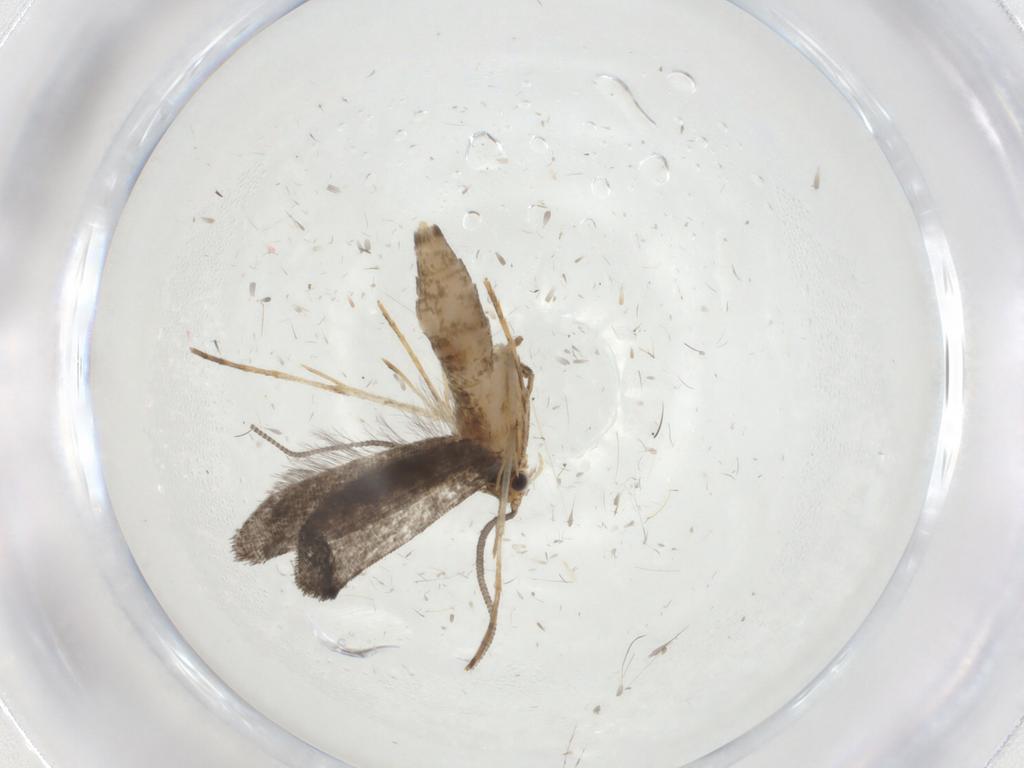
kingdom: Animalia
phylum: Arthropoda
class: Insecta
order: Lepidoptera
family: Tineidae
